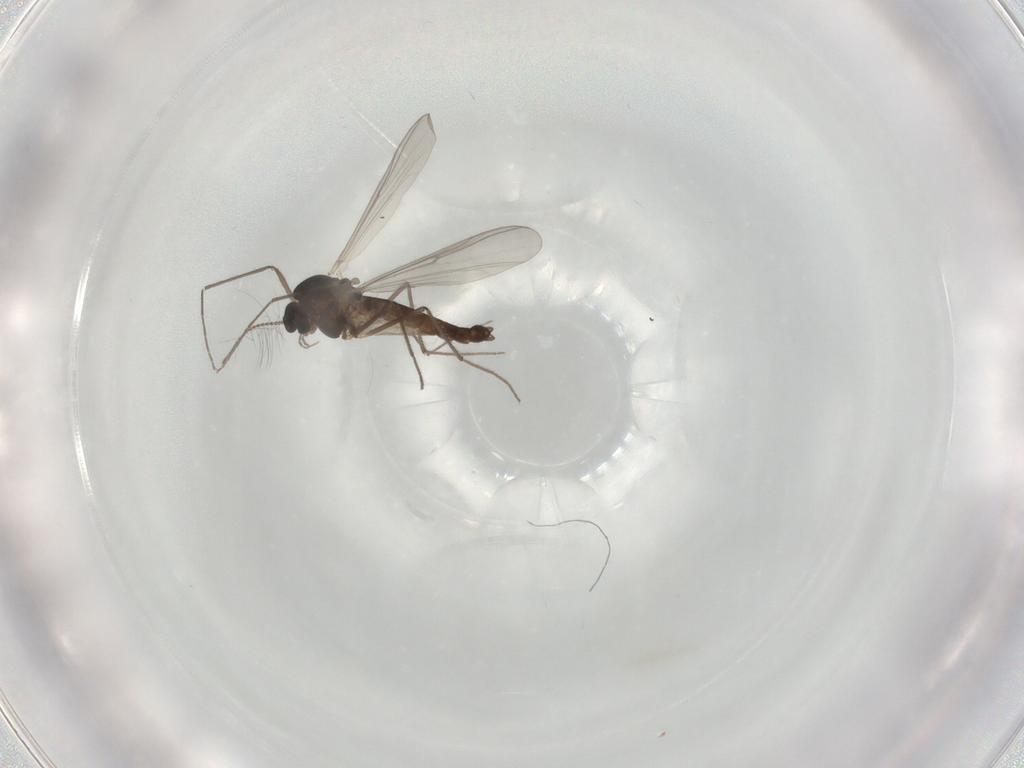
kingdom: Animalia
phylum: Arthropoda
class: Insecta
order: Diptera
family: Chironomidae
